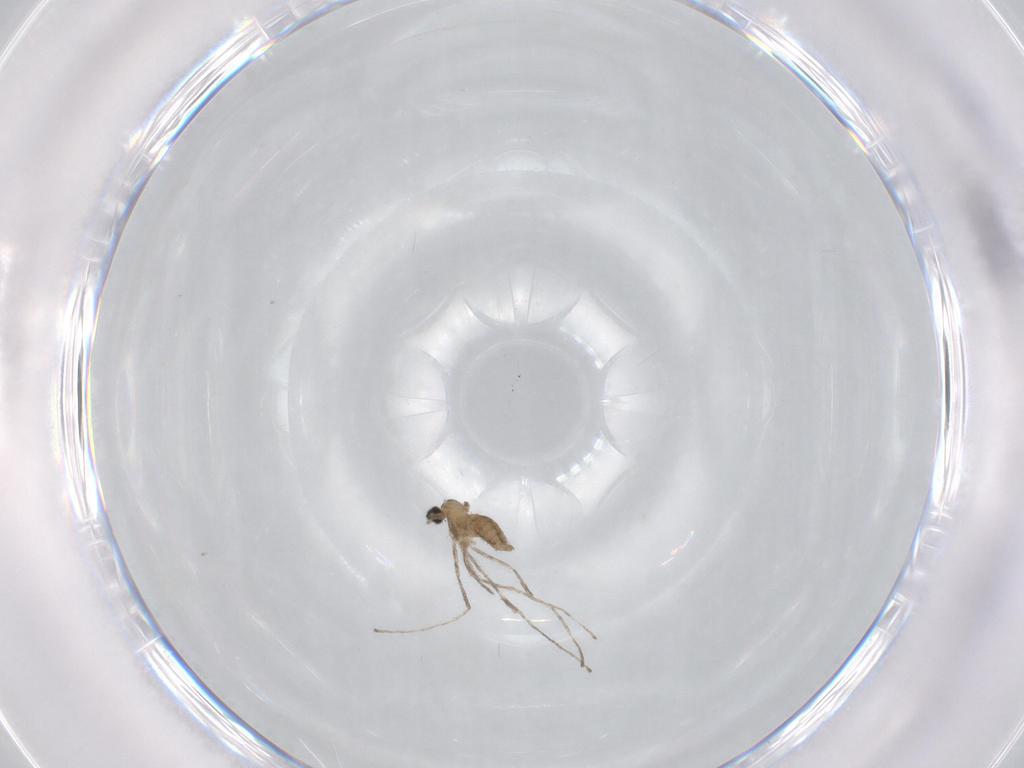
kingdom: Animalia
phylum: Arthropoda
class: Insecta
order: Diptera
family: Cecidomyiidae
